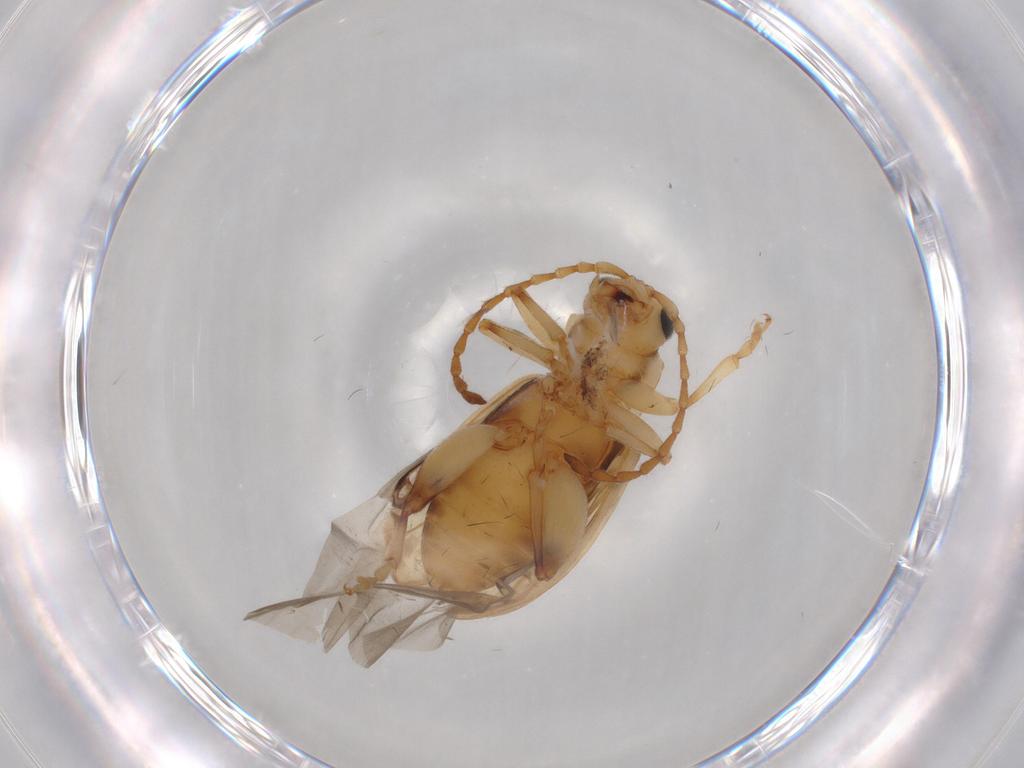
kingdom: Animalia
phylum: Arthropoda
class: Insecta
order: Coleoptera
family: Chrysomelidae
